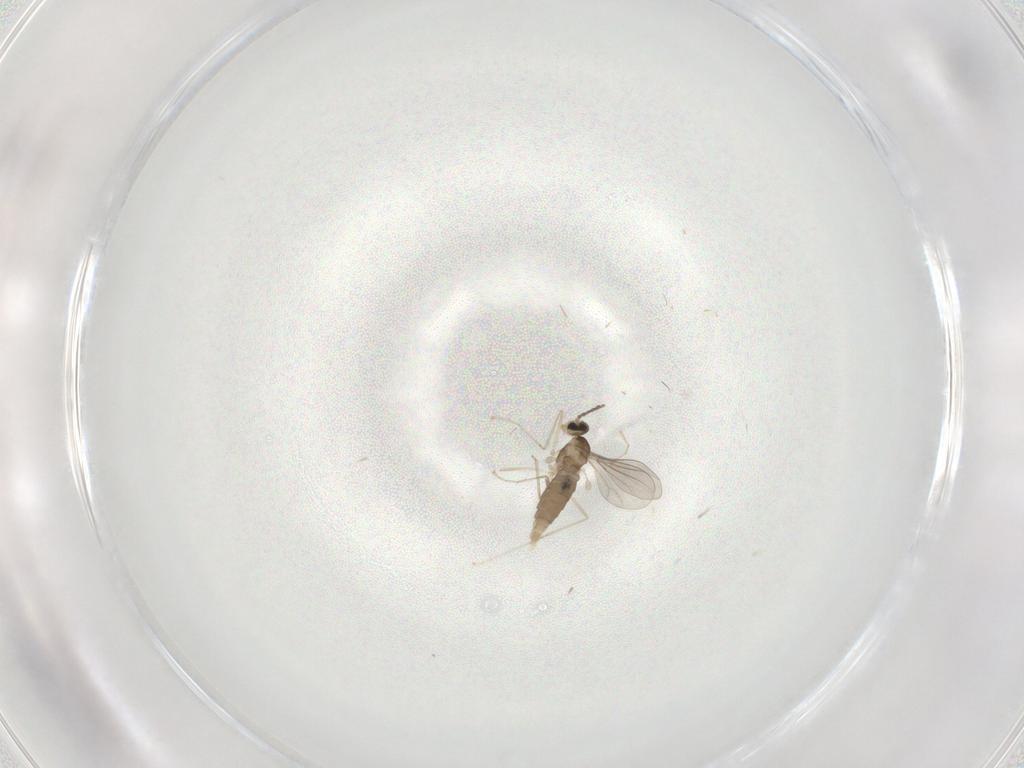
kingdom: Animalia
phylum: Arthropoda
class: Insecta
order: Diptera
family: Cecidomyiidae
